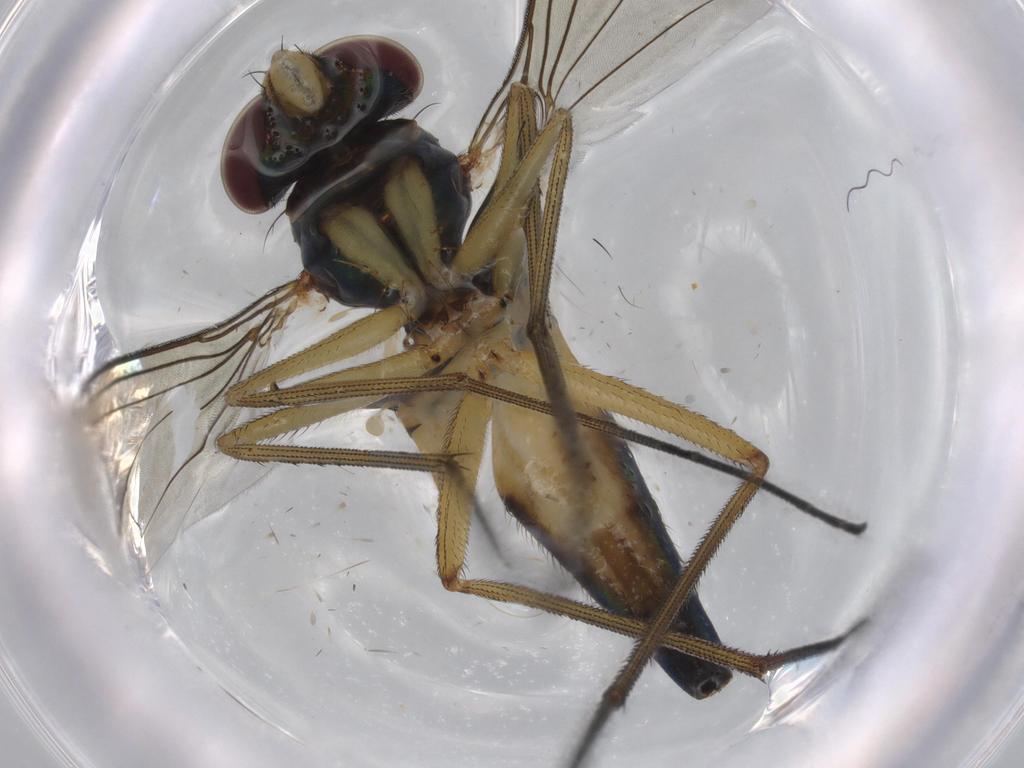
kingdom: Animalia
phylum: Arthropoda
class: Insecta
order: Diptera
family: Dolichopodidae
